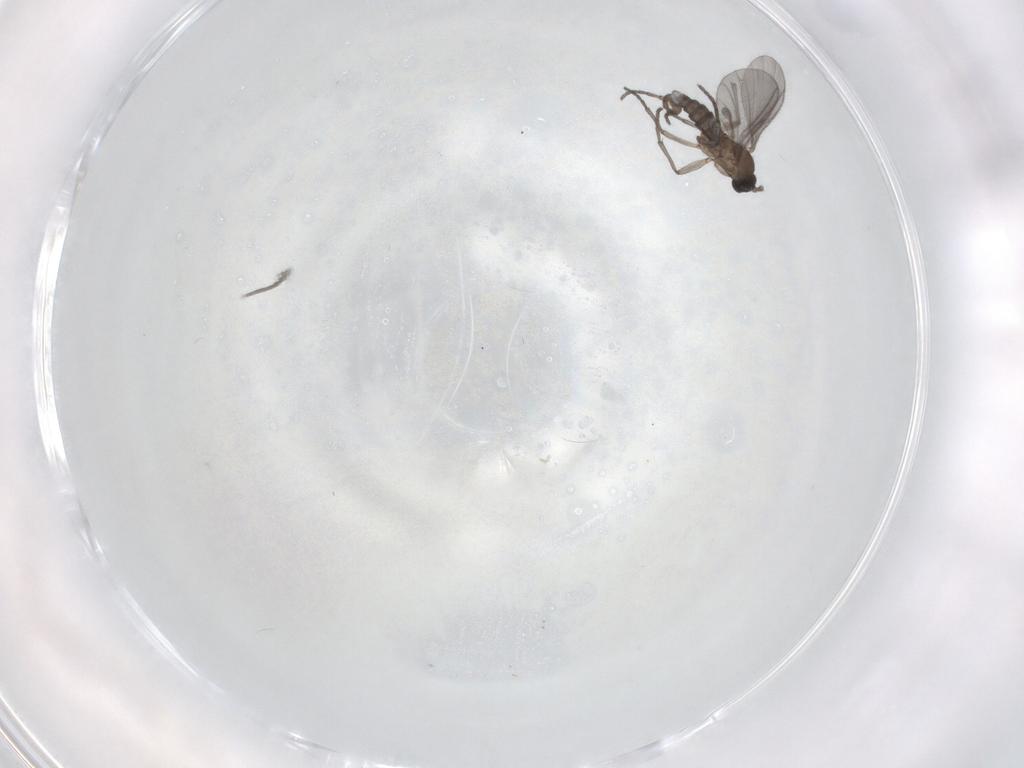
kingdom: Animalia
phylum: Arthropoda
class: Insecta
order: Diptera
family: Sciaridae
